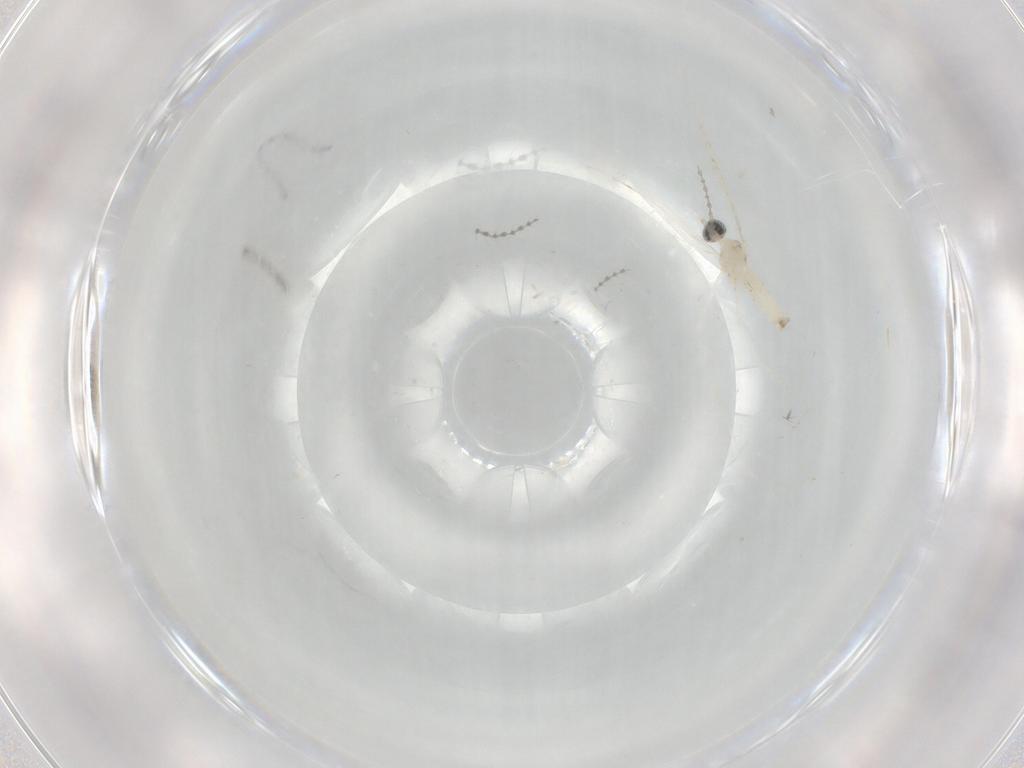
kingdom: Animalia
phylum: Arthropoda
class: Insecta
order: Diptera
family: Cecidomyiidae
